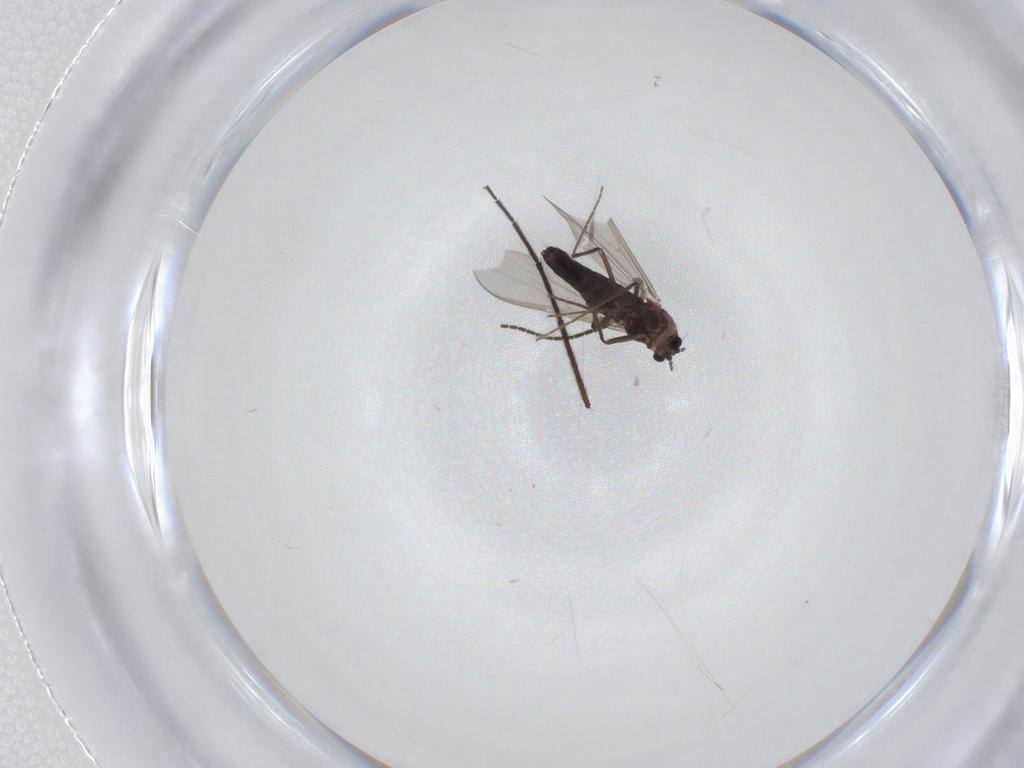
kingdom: Animalia
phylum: Arthropoda
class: Insecta
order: Diptera
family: Chironomidae
